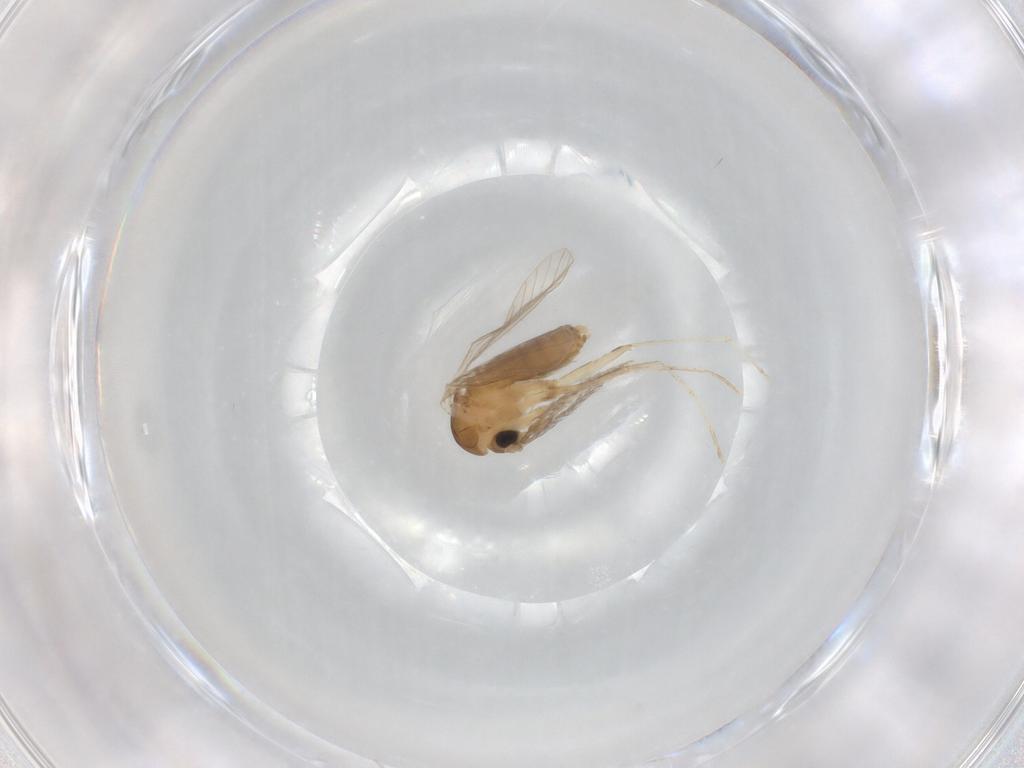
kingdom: Animalia
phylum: Arthropoda
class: Insecta
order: Diptera
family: Psychodidae
